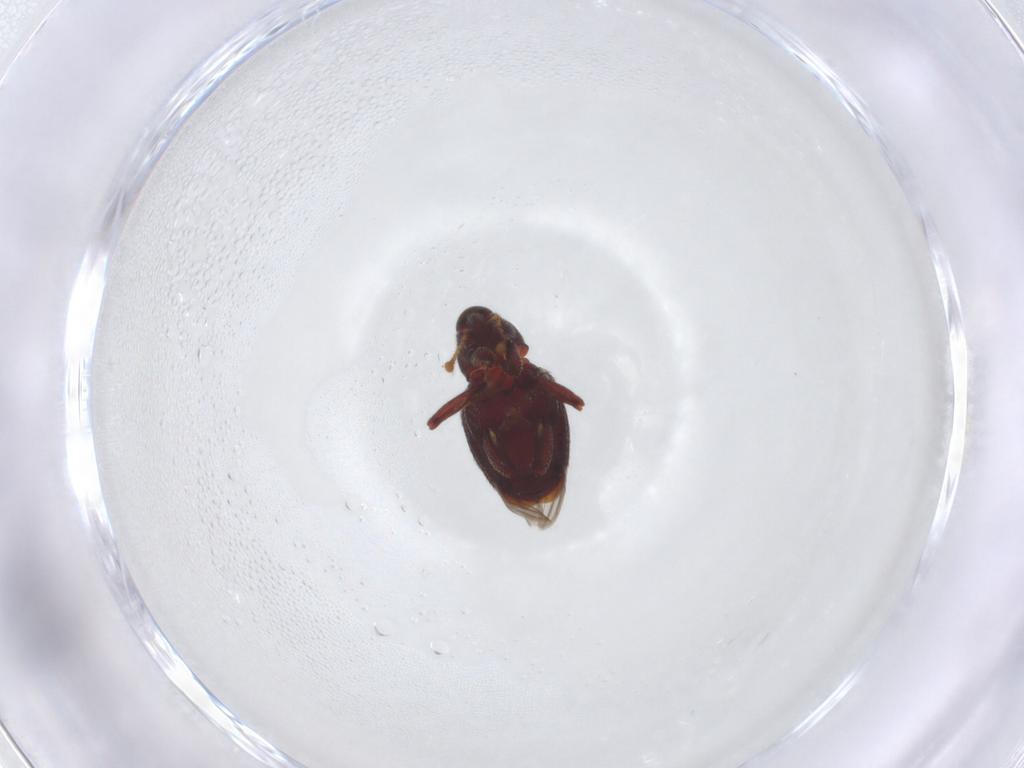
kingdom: Animalia
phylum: Arthropoda
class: Insecta
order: Coleoptera
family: Curculionidae
